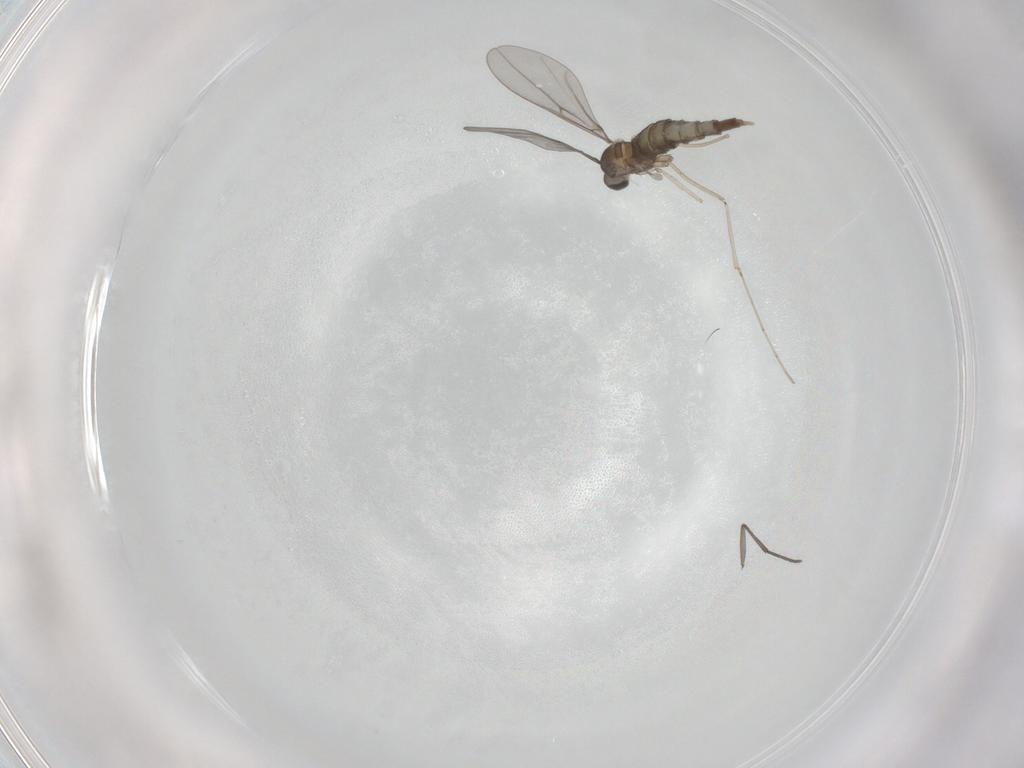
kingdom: Animalia
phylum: Arthropoda
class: Insecta
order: Diptera
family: Cecidomyiidae
